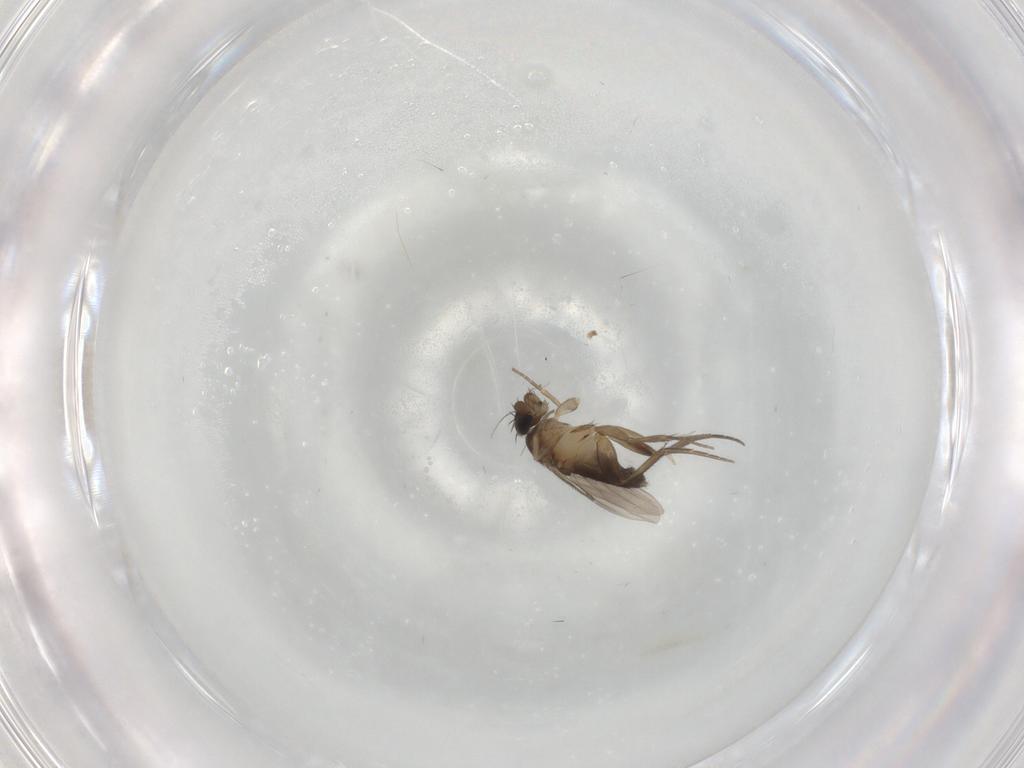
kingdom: Animalia
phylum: Arthropoda
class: Insecta
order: Diptera
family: Phoridae
